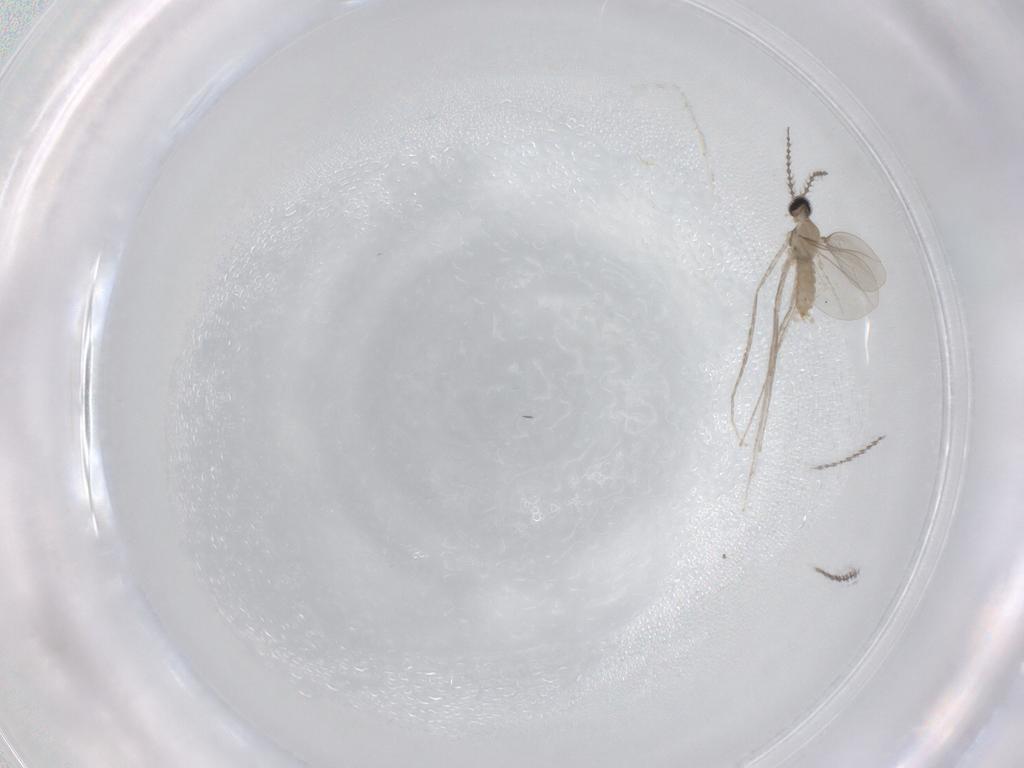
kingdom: Animalia
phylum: Arthropoda
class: Insecta
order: Diptera
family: Cecidomyiidae
